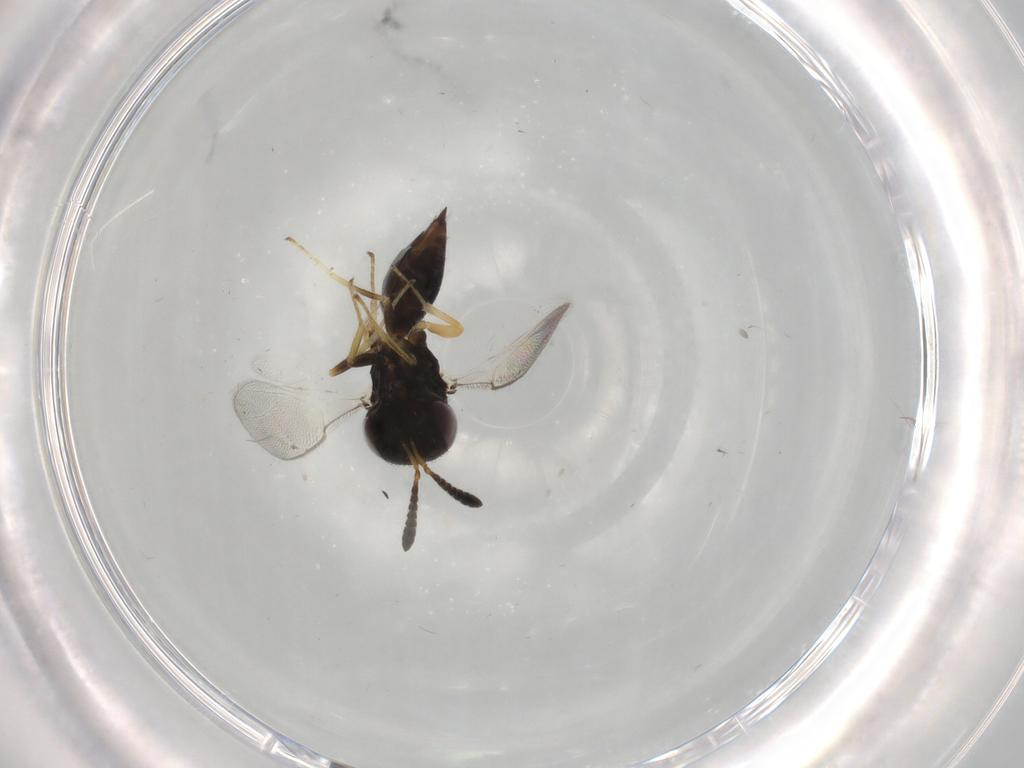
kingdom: Animalia
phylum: Arthropoda
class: Insecta
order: Hymenoptera
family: Pteromalidae
